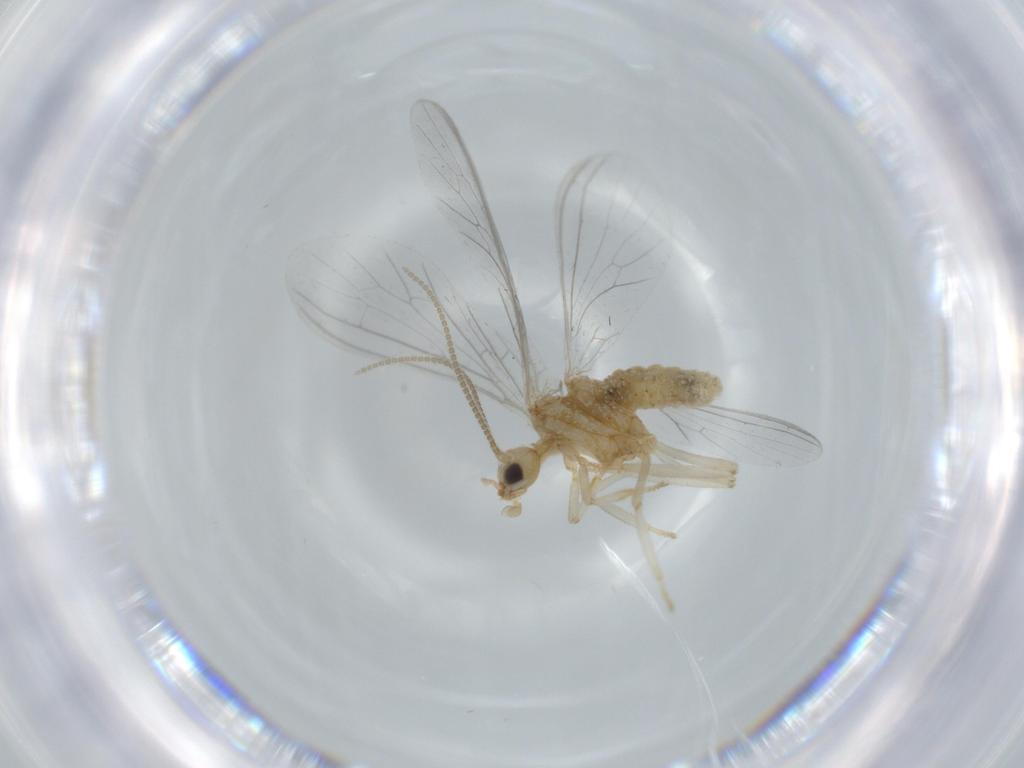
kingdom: Animalia
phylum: Arthropoda
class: Insecta
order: Neuroptera
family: Coniopterygidae
